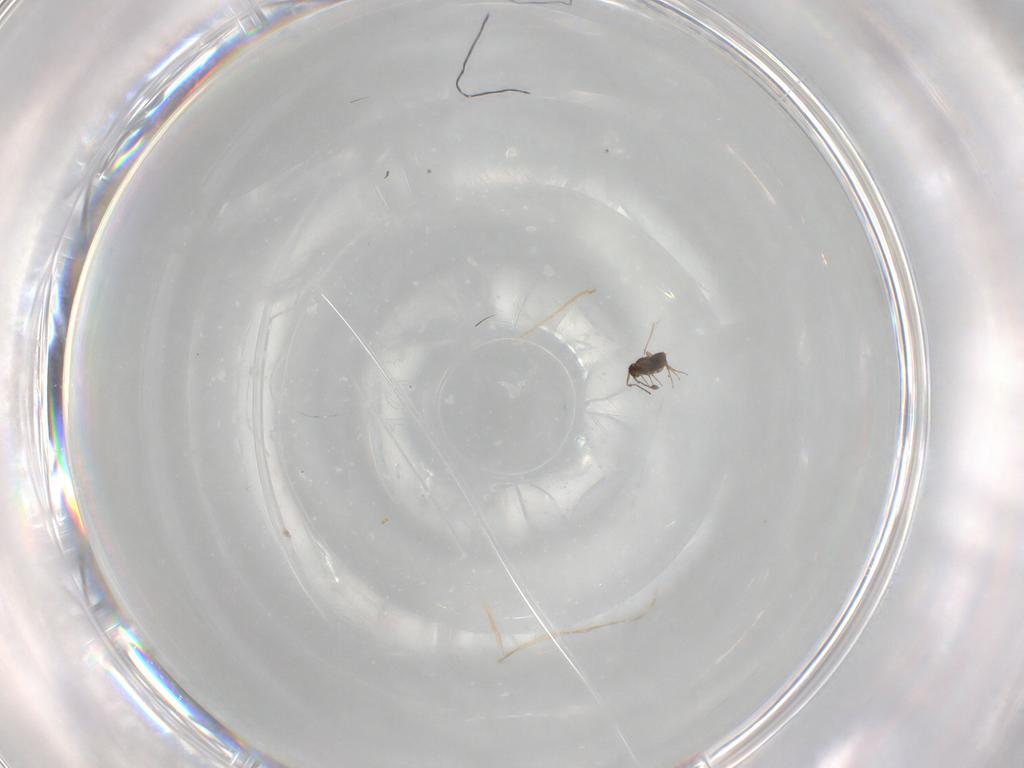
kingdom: Animalia
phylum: Arthropoda
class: Insecta
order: Hymenoptera
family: Mymaridae
